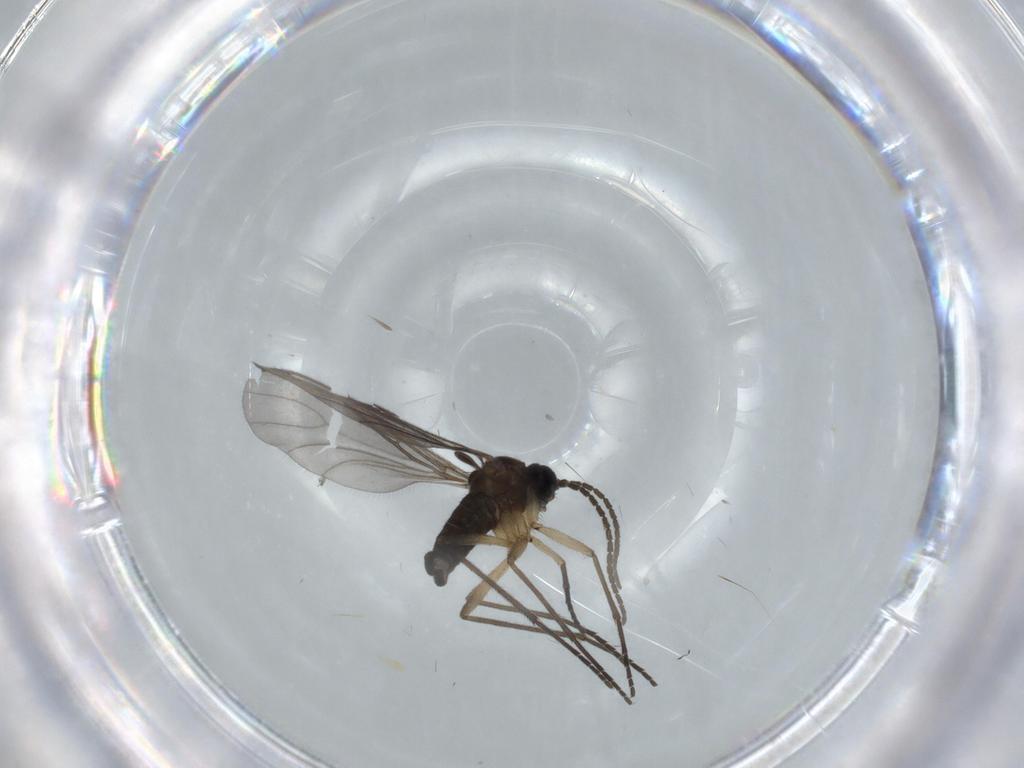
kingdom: Animalia
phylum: Arthropoda
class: Insecta
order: Diptera
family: Sciaridae
